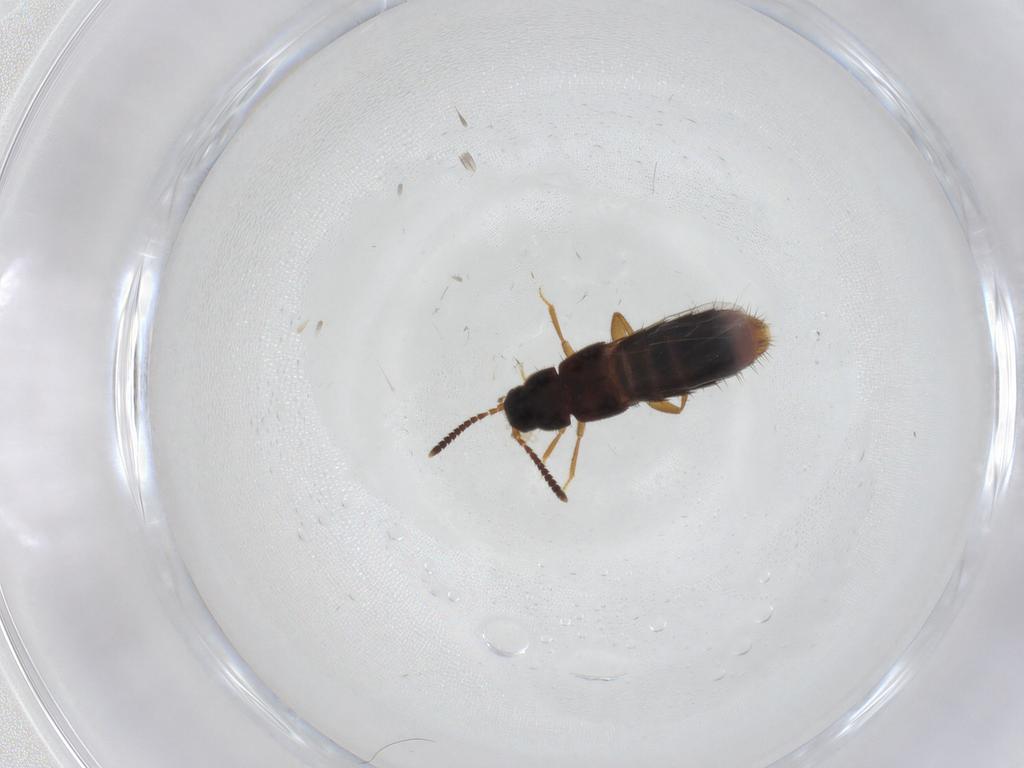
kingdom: Animalia
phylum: Arthropoda
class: Insecta
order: Coleoptera
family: Staphylinidae
